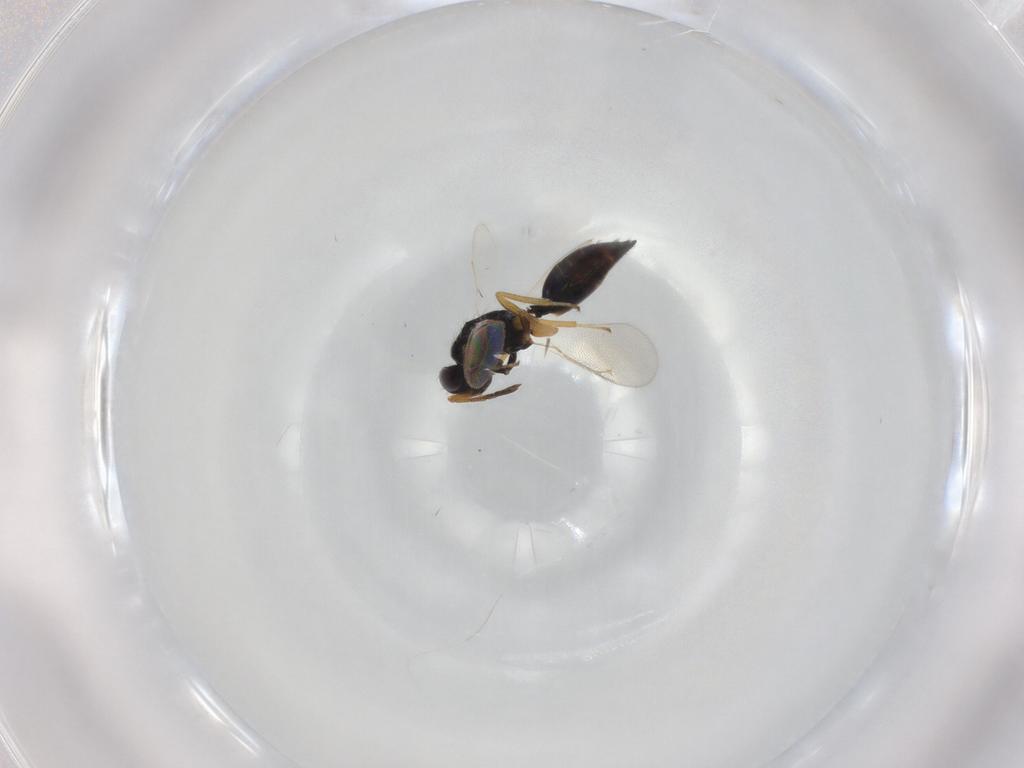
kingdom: Animalia
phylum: Arthropoda
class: Insecta
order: Hymenoptera
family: Eulophidae
